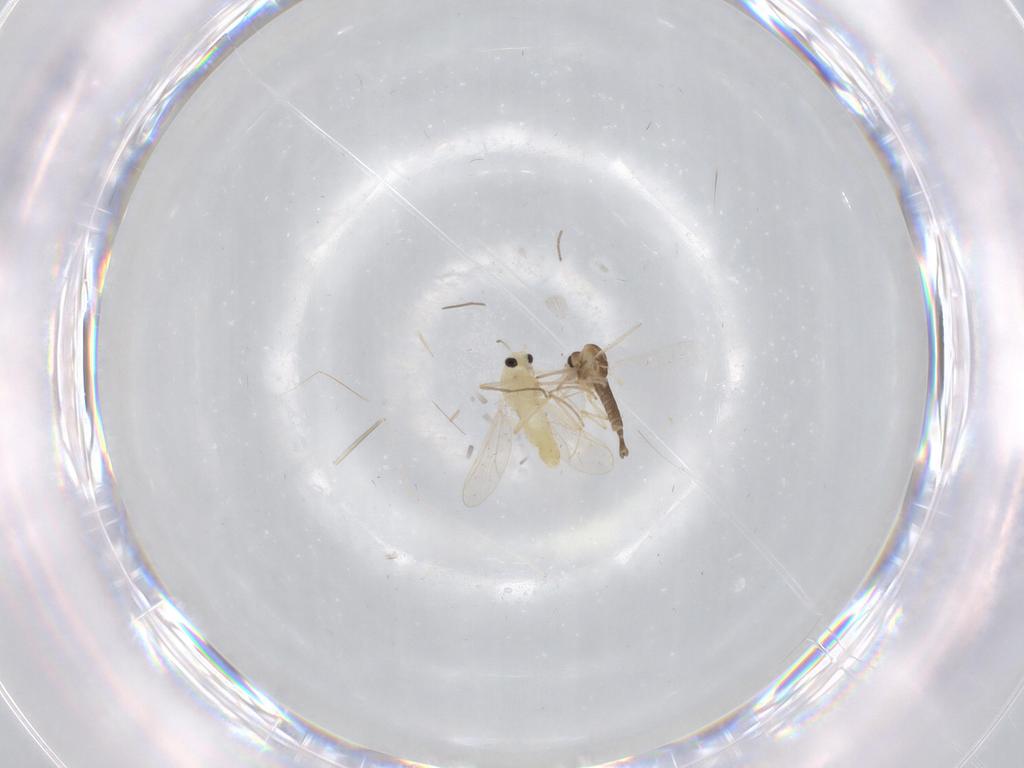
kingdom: Animalia
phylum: Arthropoda
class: Insecta
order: Diptera
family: Chironomidae
